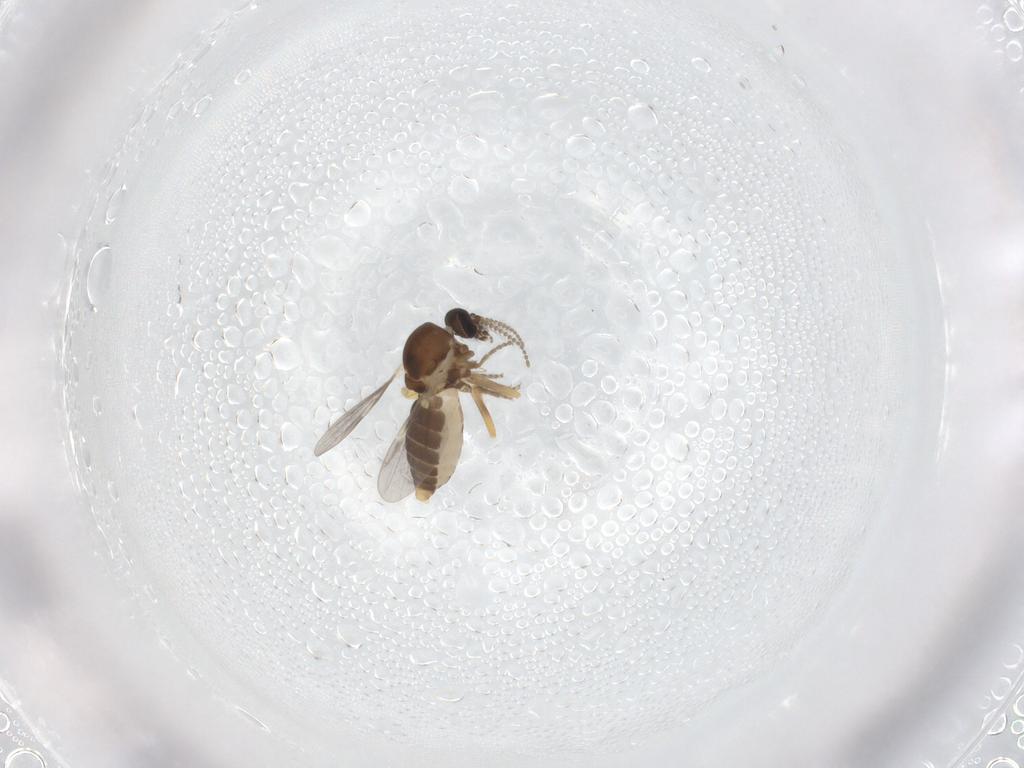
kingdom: Animalia
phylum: Arthropoda
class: Insecta
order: Diptera
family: Ceratopogonidae
